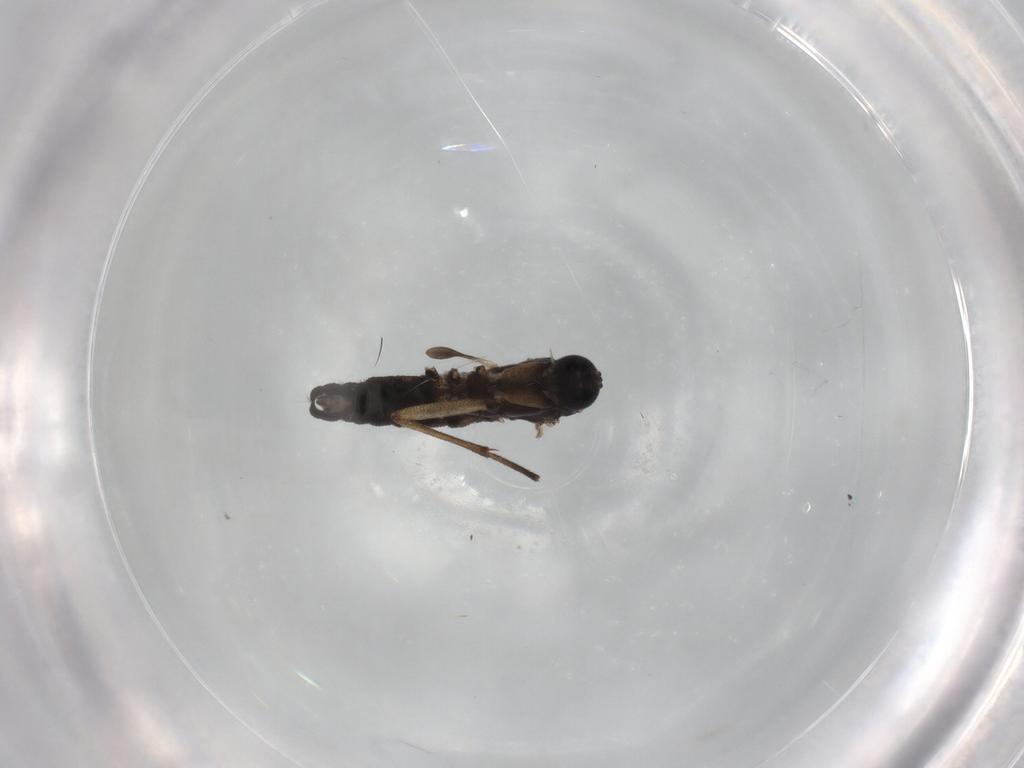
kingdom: Animalia
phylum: Arthropoda
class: Insecta
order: Diptera
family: Sciaridae
